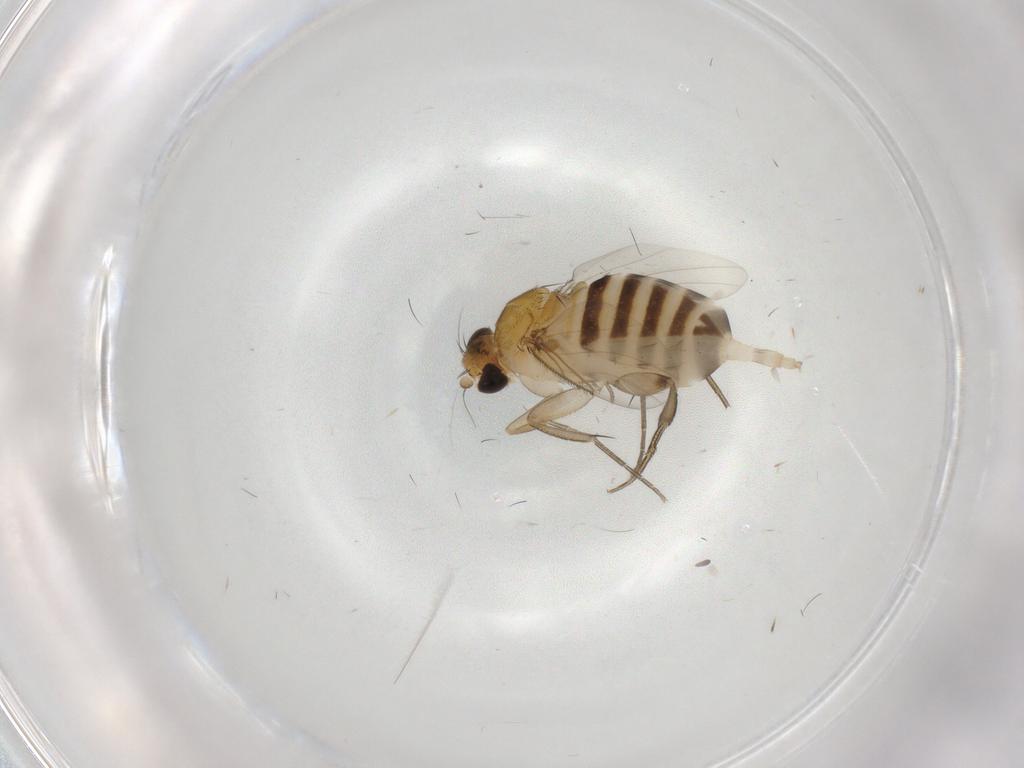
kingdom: Animalia
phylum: Arthropoda
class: Insecta
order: Diptera
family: Phoridae
